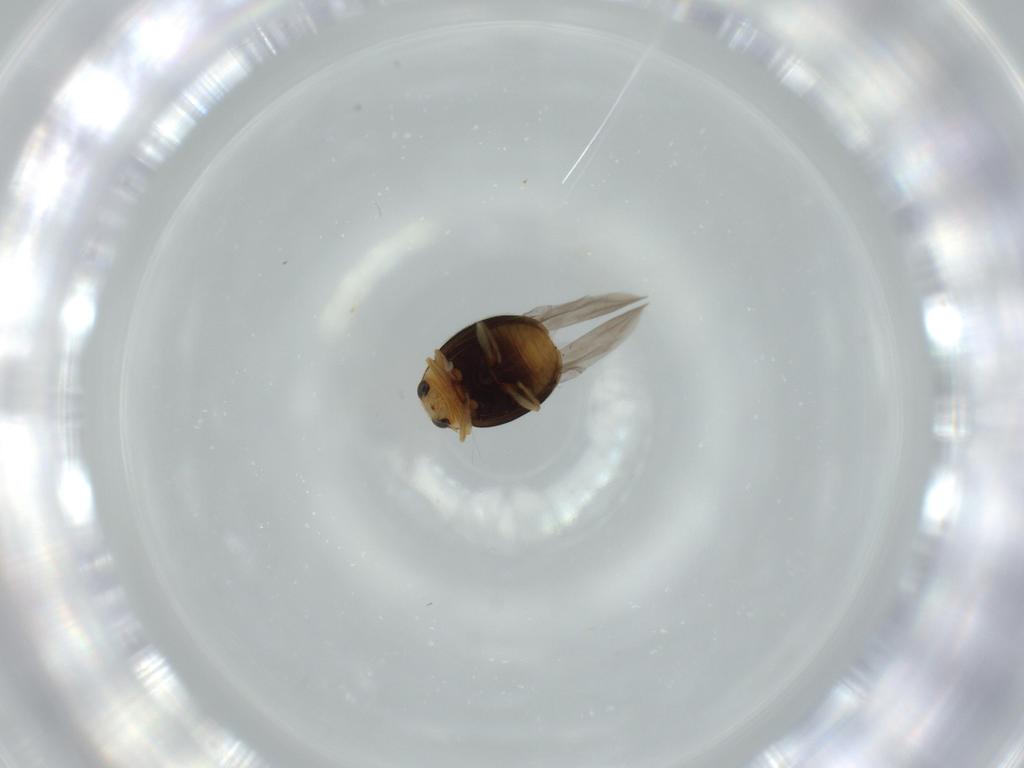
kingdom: Animalia
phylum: Arthropoda
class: Insecta
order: Coleoptera
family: Coccinellidae
